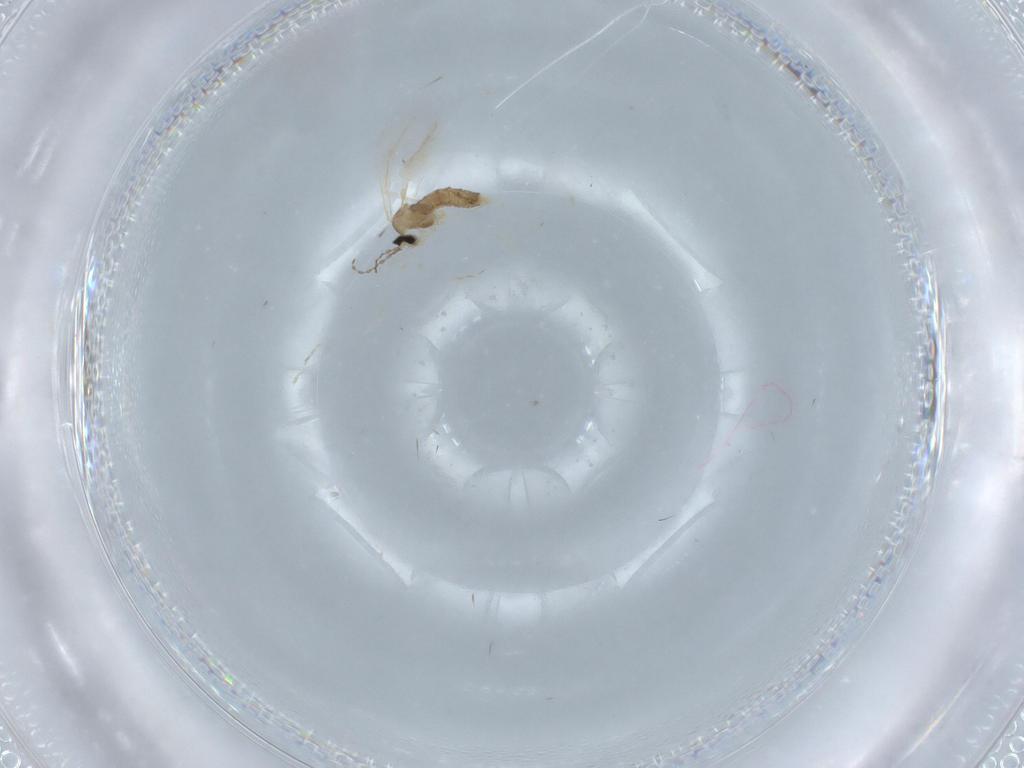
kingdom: Animalia
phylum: Arthropoda
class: Insecta
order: Diptera
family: Cecidomyiidae
